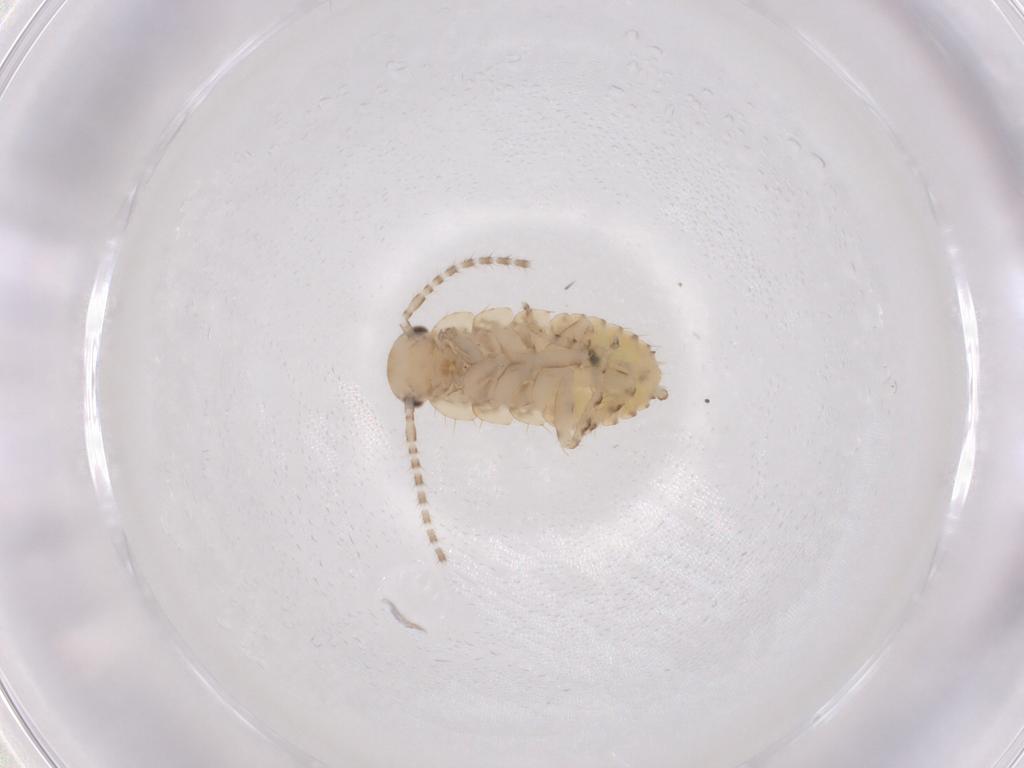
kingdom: Animalia
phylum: Arthropoda
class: Insecta
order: Blattodea
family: Ectobiidae
